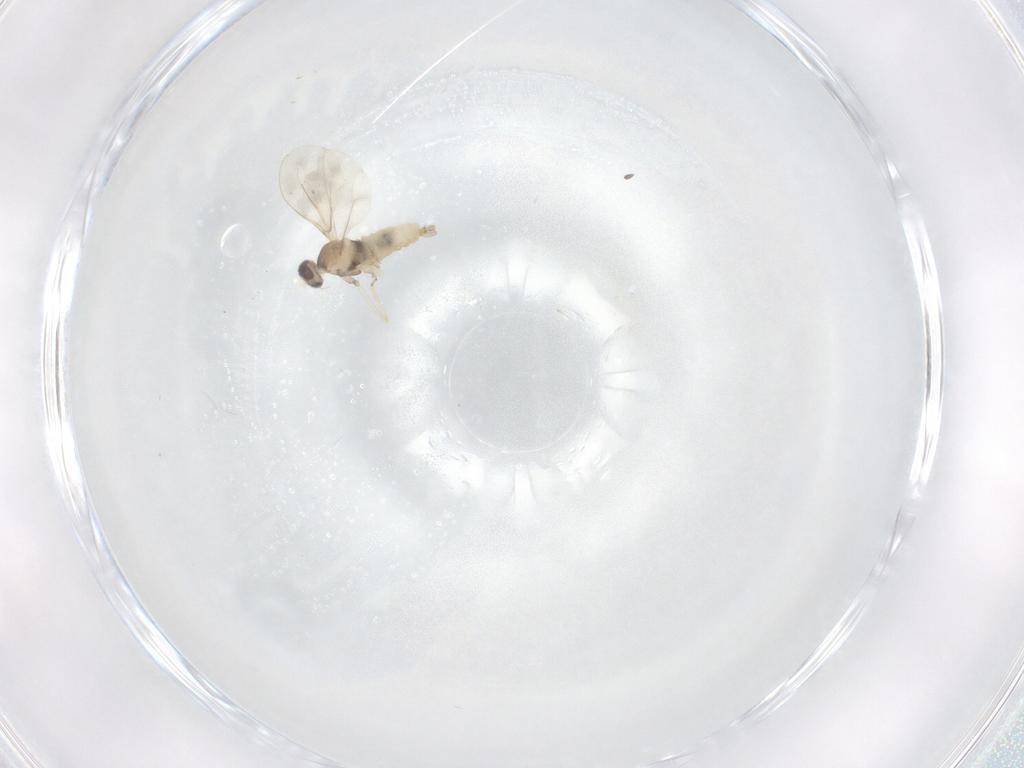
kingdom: Animalia
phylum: Arthropoda
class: Insecta
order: Diptera
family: Cecidomyiidae
